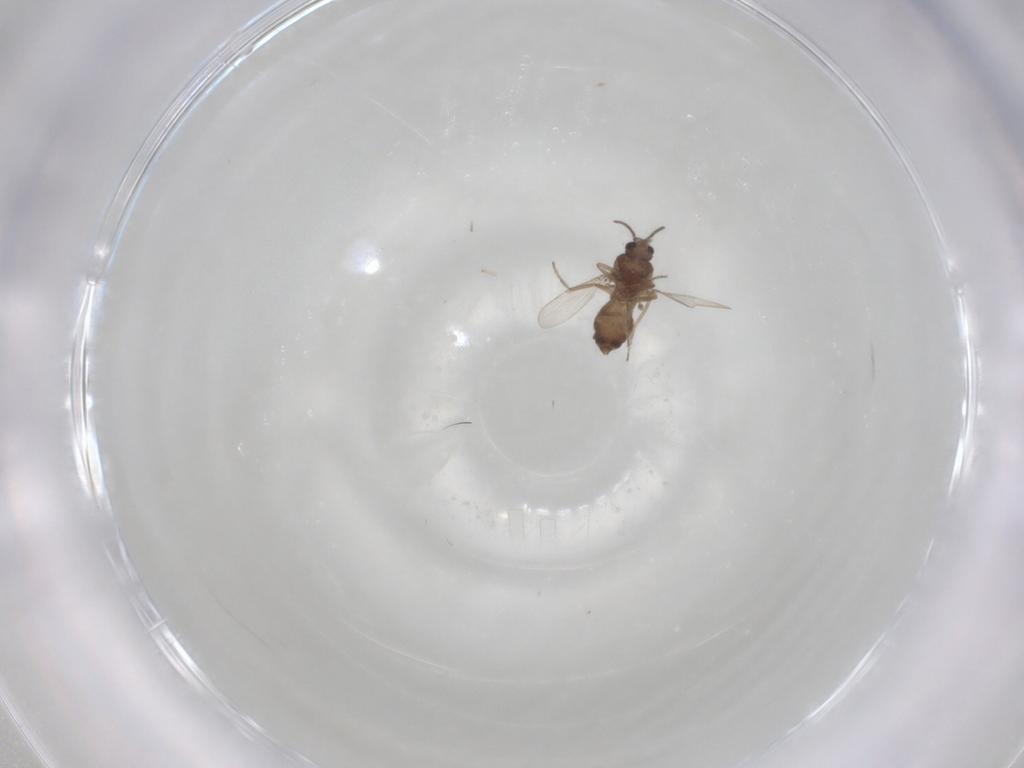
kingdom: Animalia
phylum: Arthropoda
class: Insecta
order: Diptera
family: Ceratopogonidae
